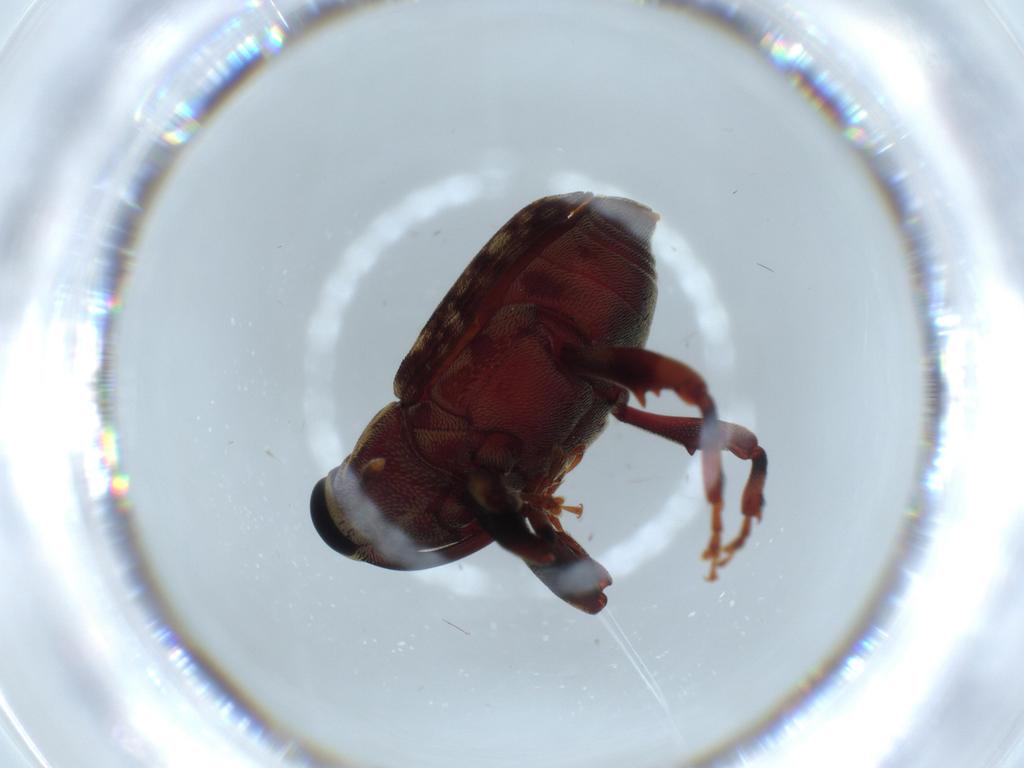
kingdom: Animalia
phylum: Arthropoda
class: Insecta
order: Coleoptera
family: Curculionidae
